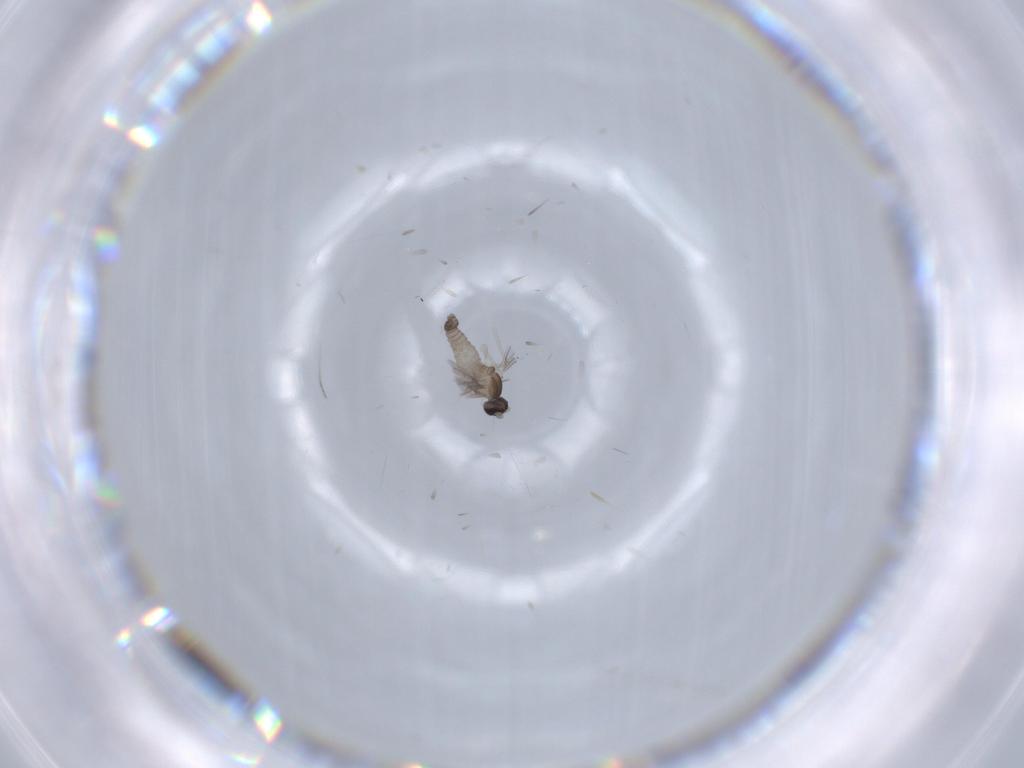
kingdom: Animalia
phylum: Arthropoda
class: Insecta
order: Diptera
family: Cecidomyiidae
